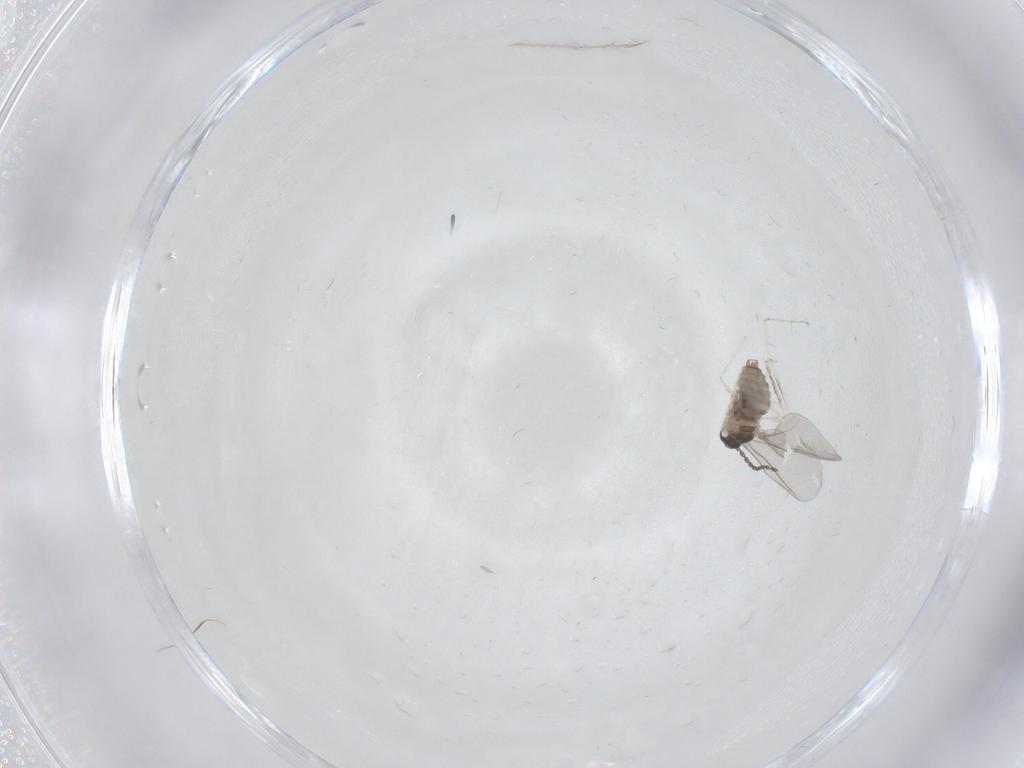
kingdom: Animalia
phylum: Arthropoda
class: Insecta
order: Diptera
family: Cecidomyiidae
